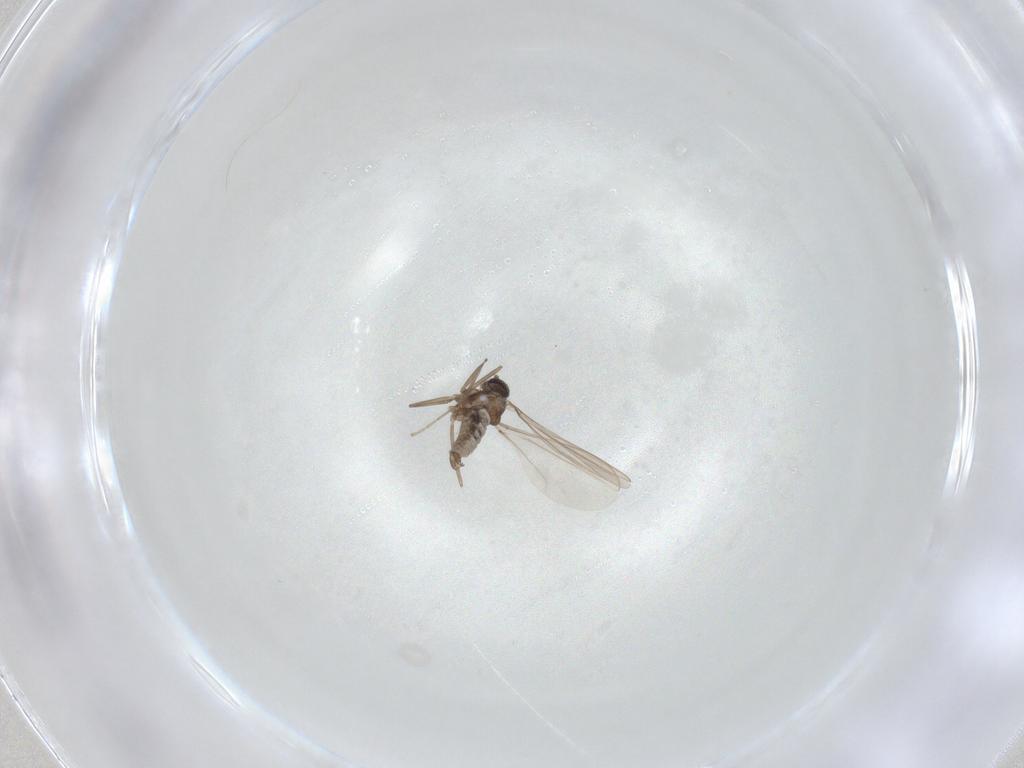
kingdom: Animalia
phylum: Arthropoda
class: Insecta
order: Diptera
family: Cecidomyiidae
